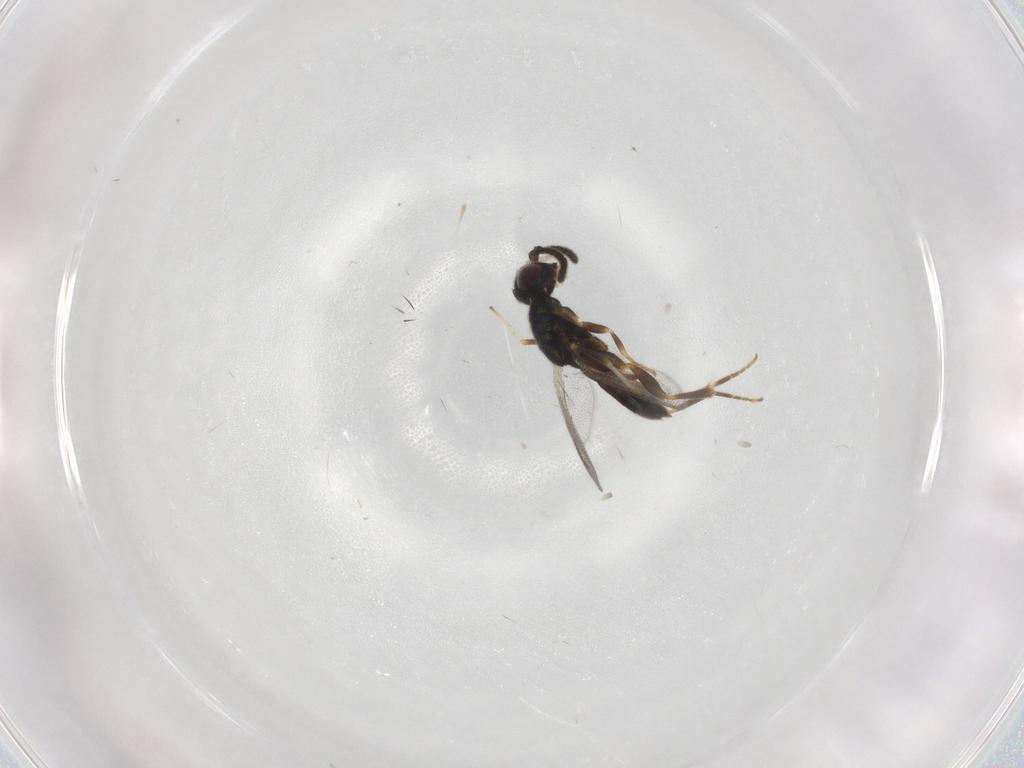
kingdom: Animalia
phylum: Arthropoda
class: Insecta
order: Hymenoptera
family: Cleonyminae
